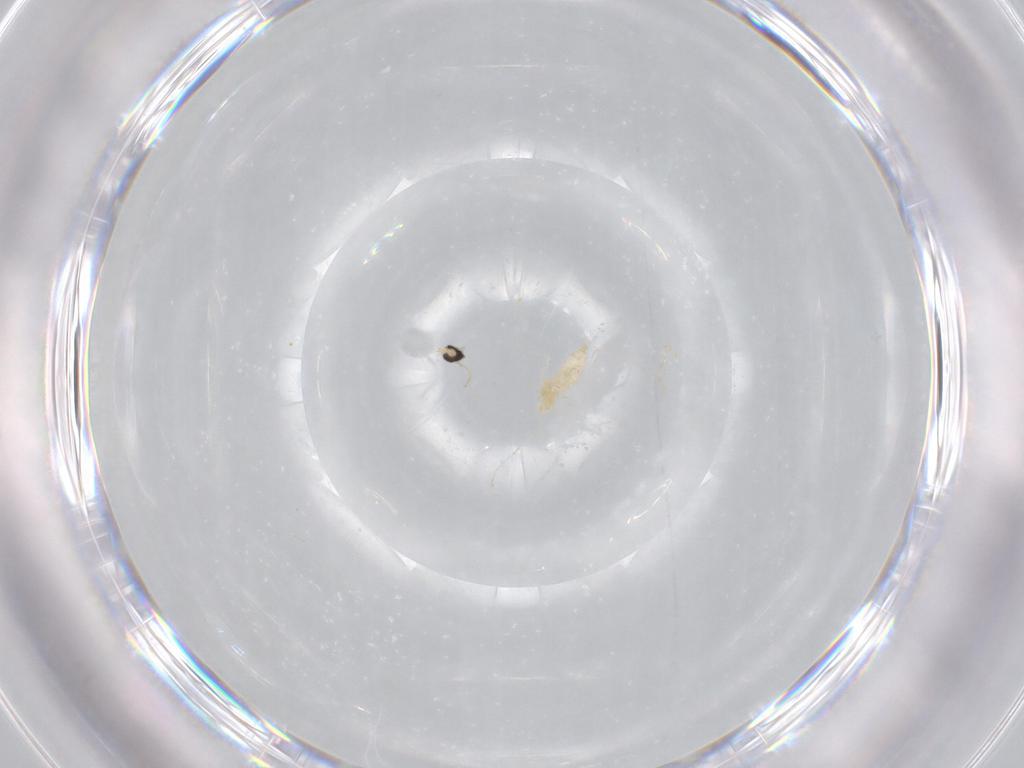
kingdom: Animalia
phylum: Arthropoda
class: Insecta
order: Diptera
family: Cecidomyiidae
